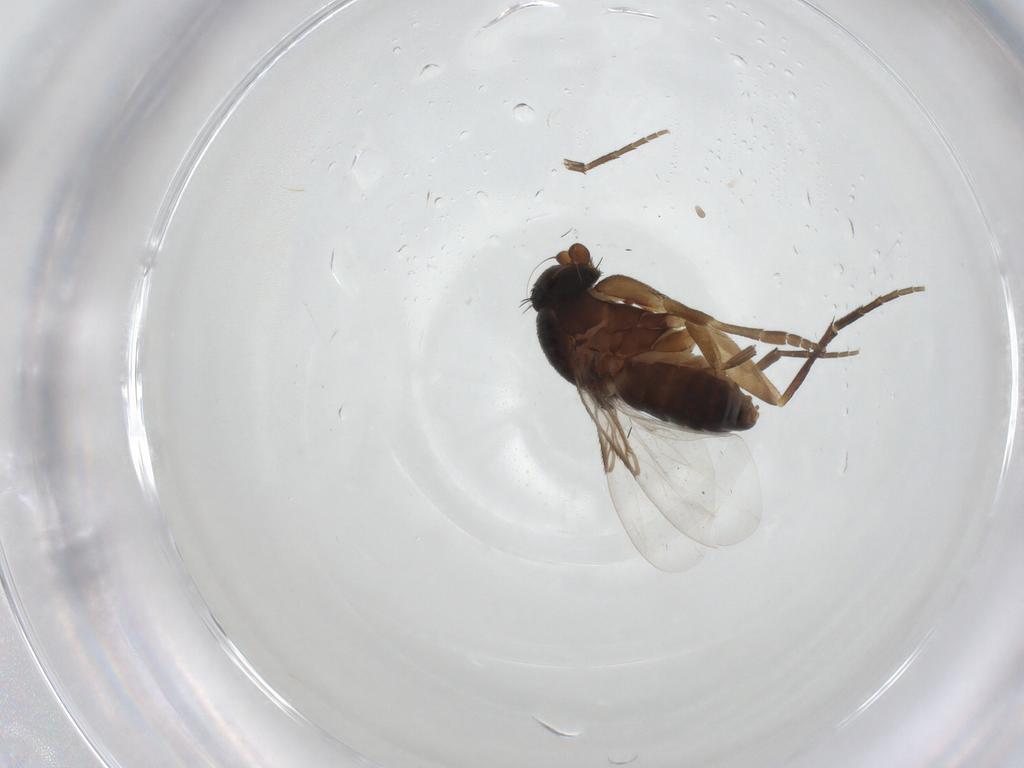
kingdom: Animalia
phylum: Arthropoda
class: Insecta
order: Diptera
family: Phoridae
